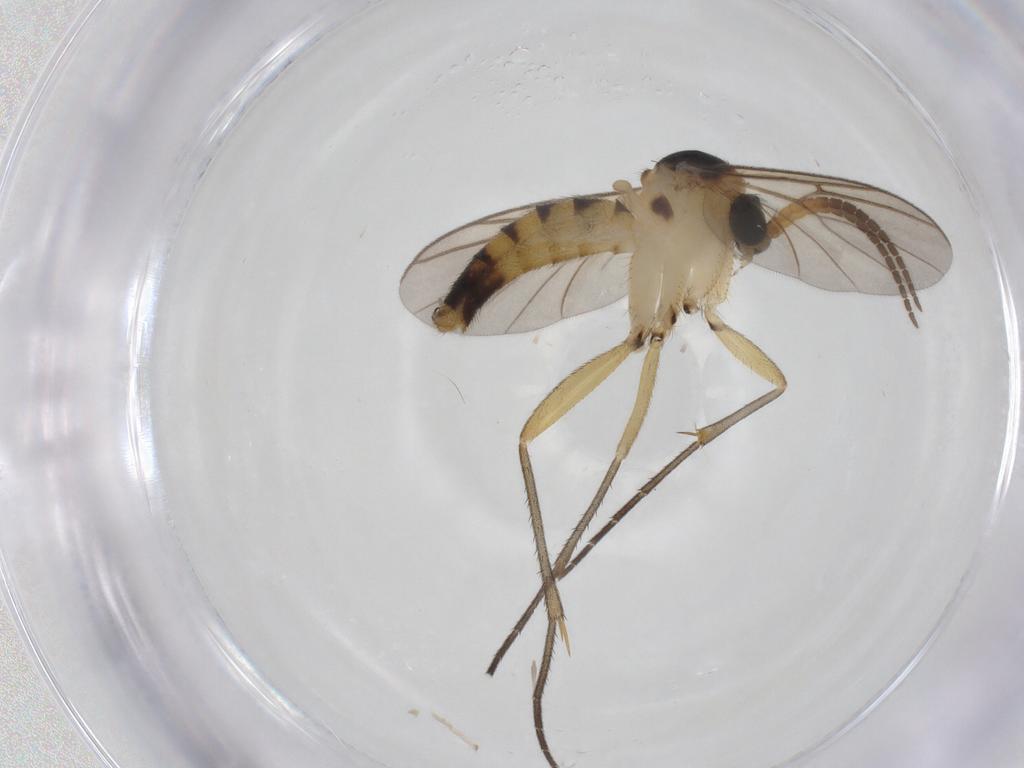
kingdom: Animalia
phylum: Arthropoda
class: Insecta
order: Diptera
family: Mycetophilidae
